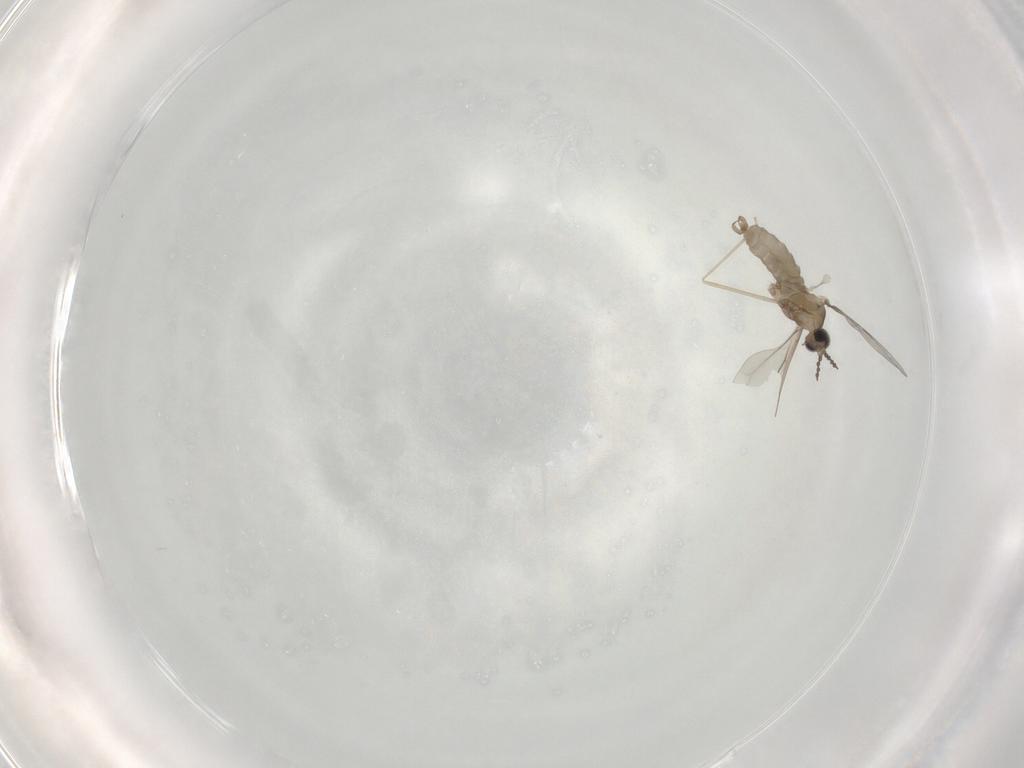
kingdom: Animalia
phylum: Arthropoda
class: Insecta
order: Diptera
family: Cecidomyiidae
